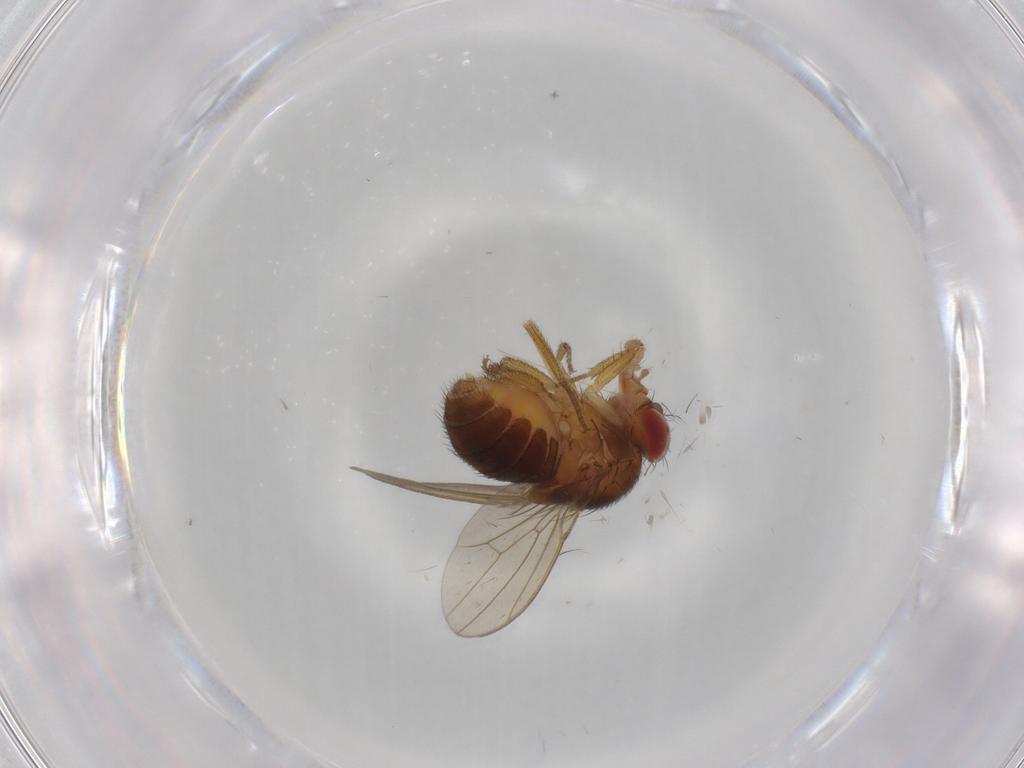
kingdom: Animalia
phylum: Arthropoda
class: Insecta
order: Diptera
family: Drosophilidae
